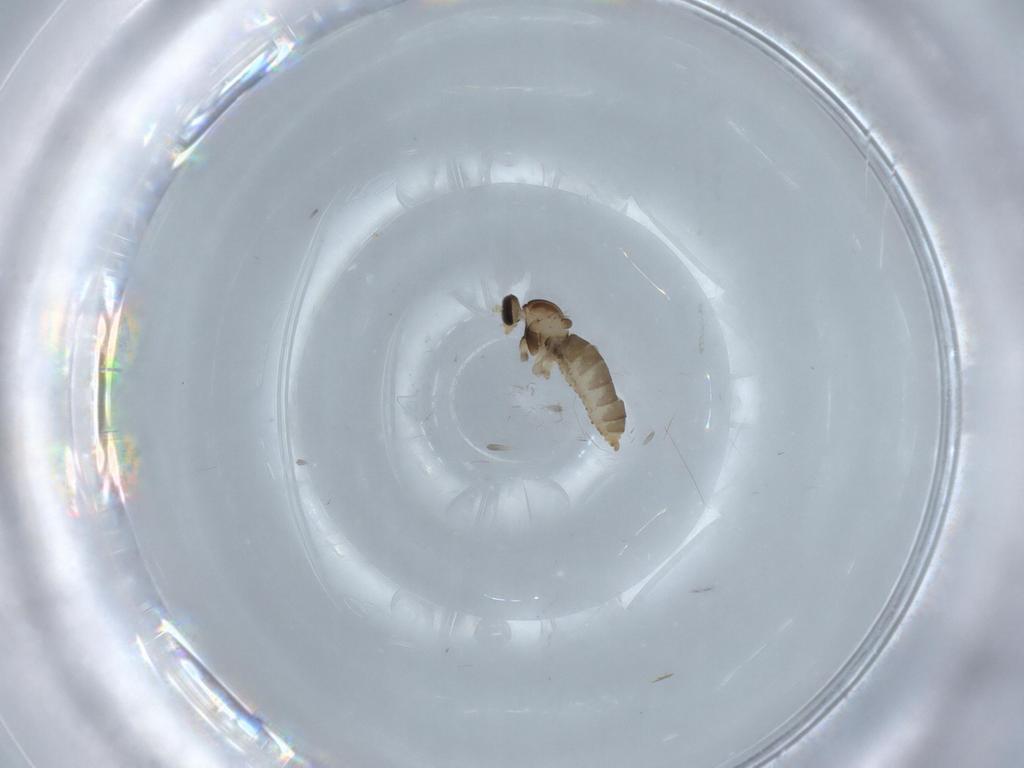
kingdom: Animalia
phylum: Arthropoda
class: Insecta
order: Diptera
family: Cecidomyiidae
